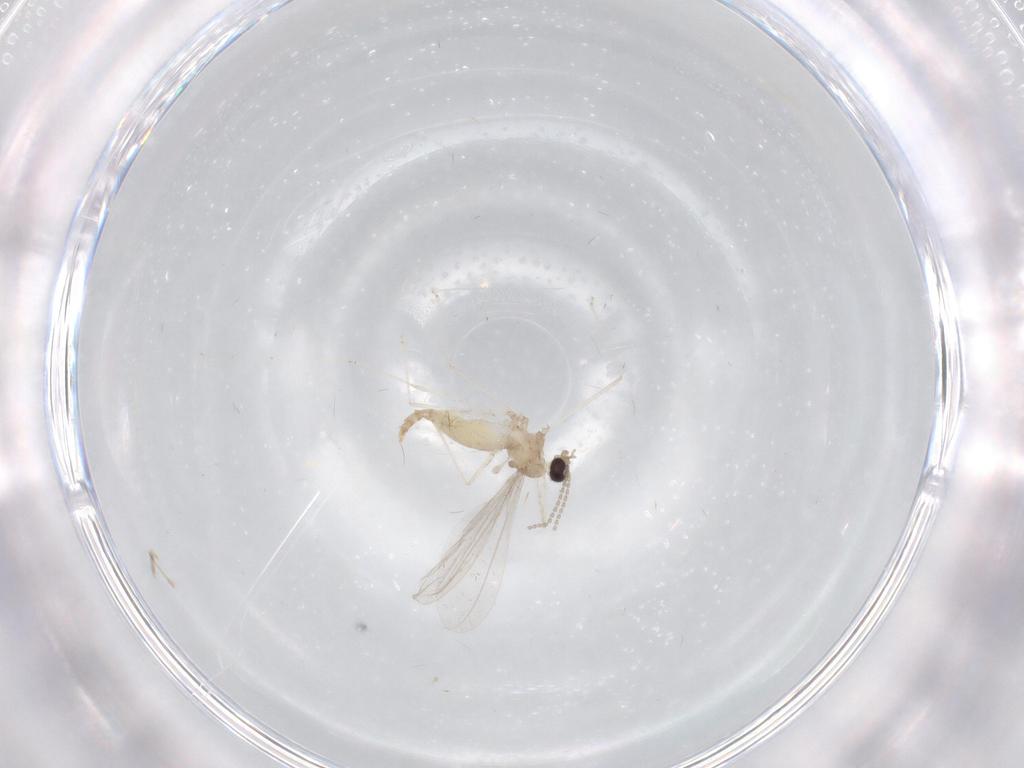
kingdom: Animalia
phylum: Arthropoda
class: Insecta
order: Diptera
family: Cecidomyiidae
